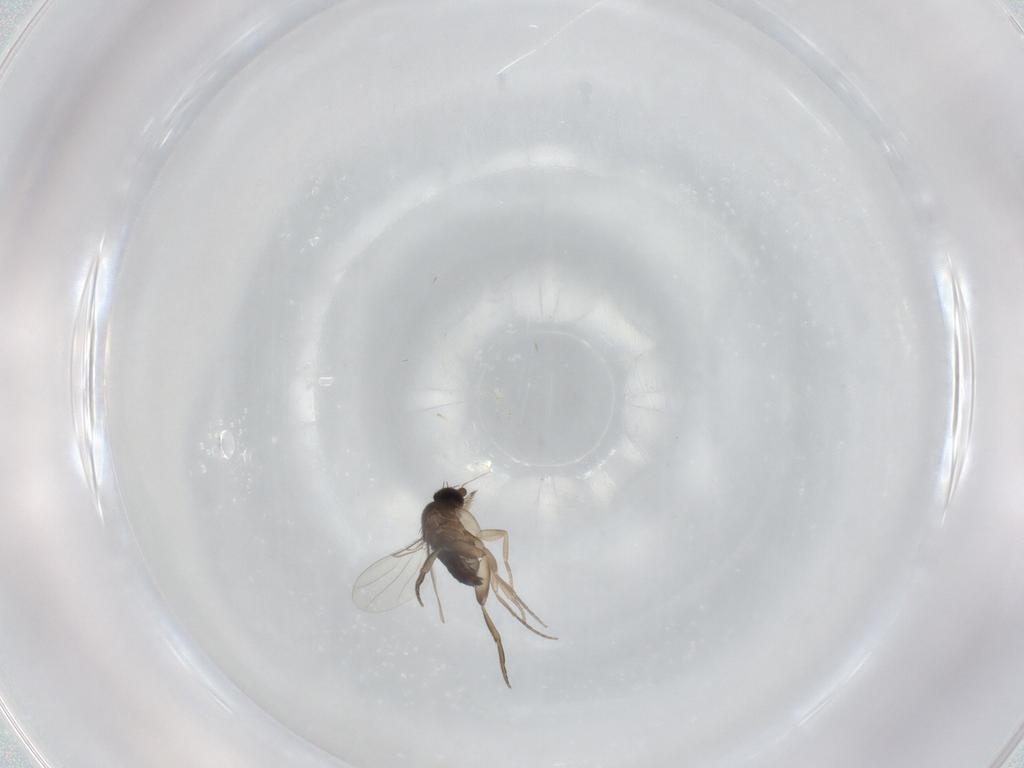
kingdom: Animalia
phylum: Arthropoda
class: Insecta
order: Diptera
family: Phoridae
